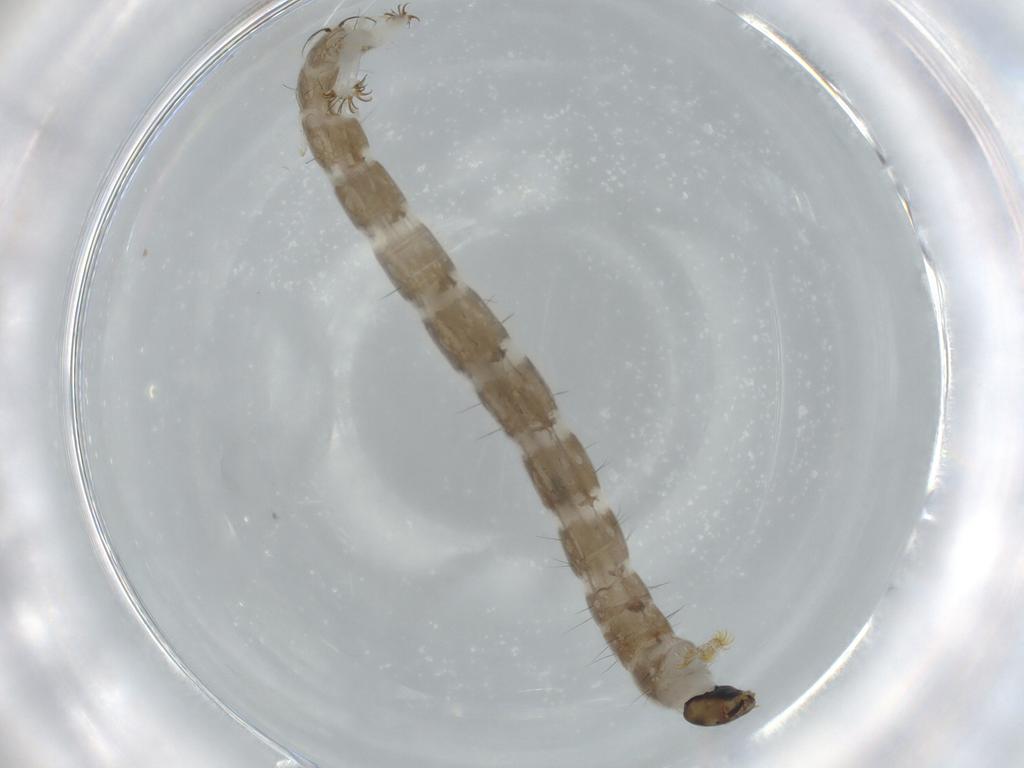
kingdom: Animalia
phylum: Arthropoda
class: Insecta
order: Diptera
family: Chironomidae
